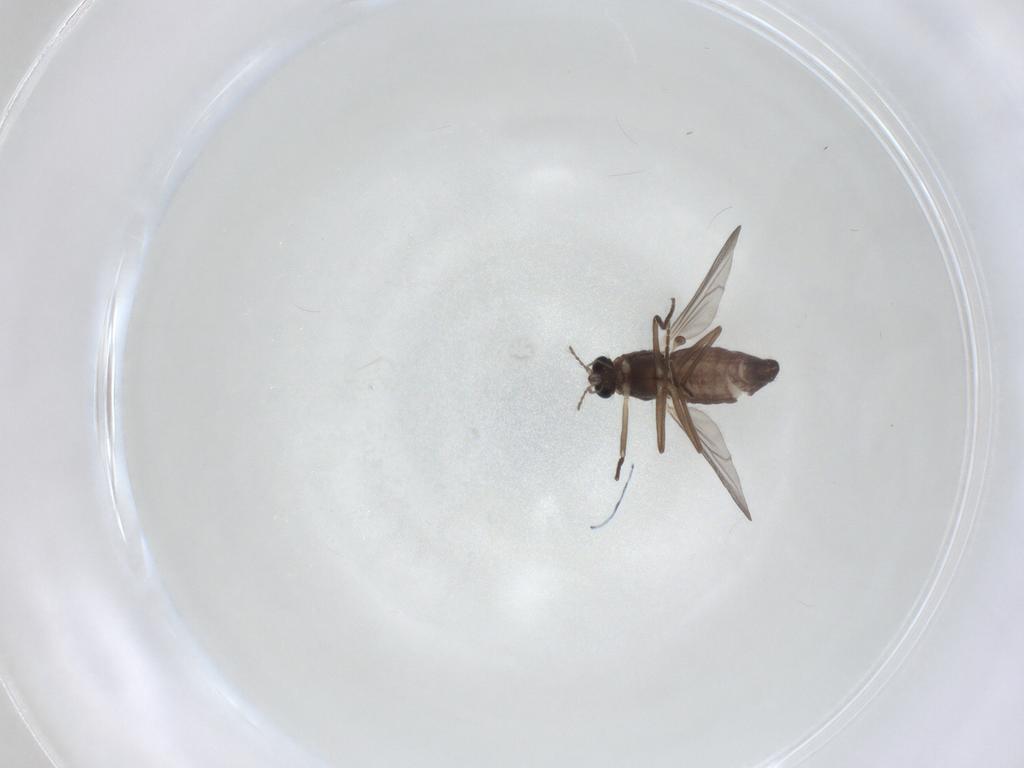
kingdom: Animalia
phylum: Arthropoda
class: Insecta
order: Diptera
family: Chironomidae
